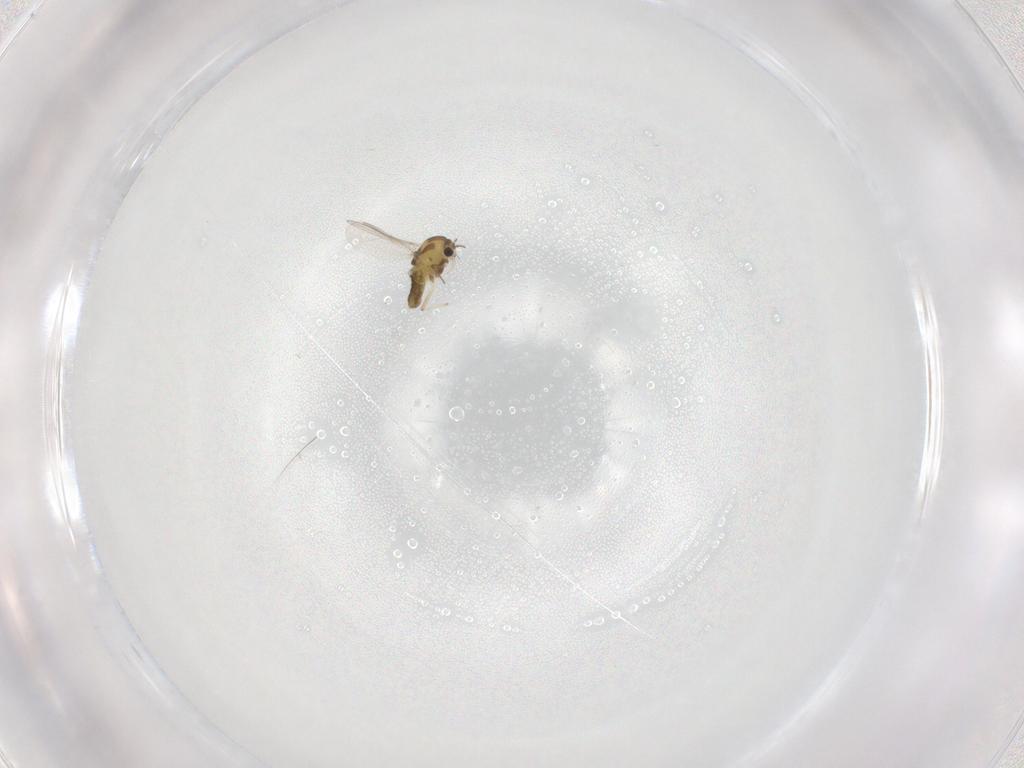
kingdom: Animalia
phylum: Arthropoda
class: Insecta
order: Diptera
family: Chironomidae
